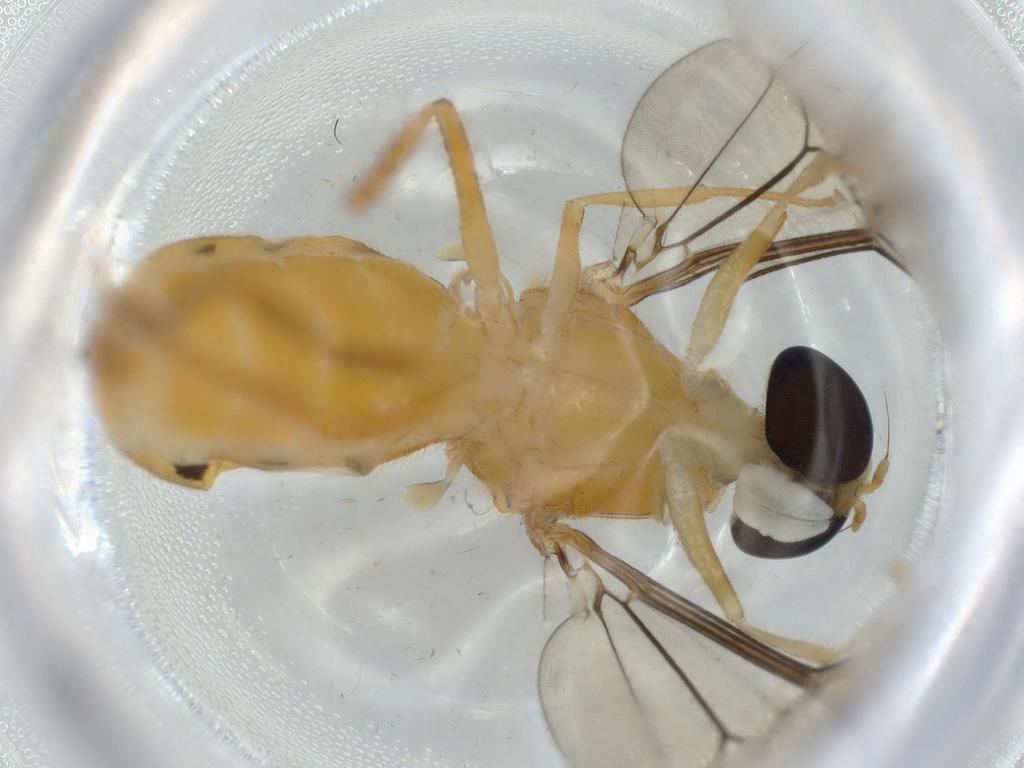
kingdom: Animalia
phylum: Arthropoda
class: Insecta
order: Diptera
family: Cecidomyiidae
